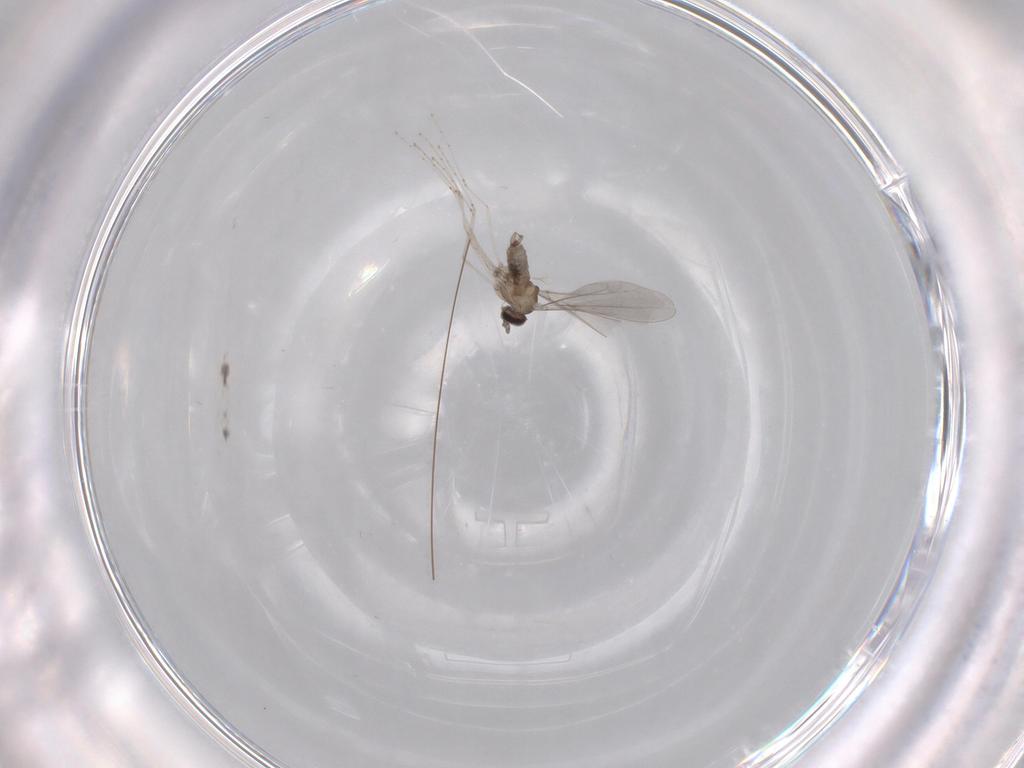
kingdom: Animalia
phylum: Arthropoda
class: Insecta
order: Diptera
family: Cecidomyiidae
